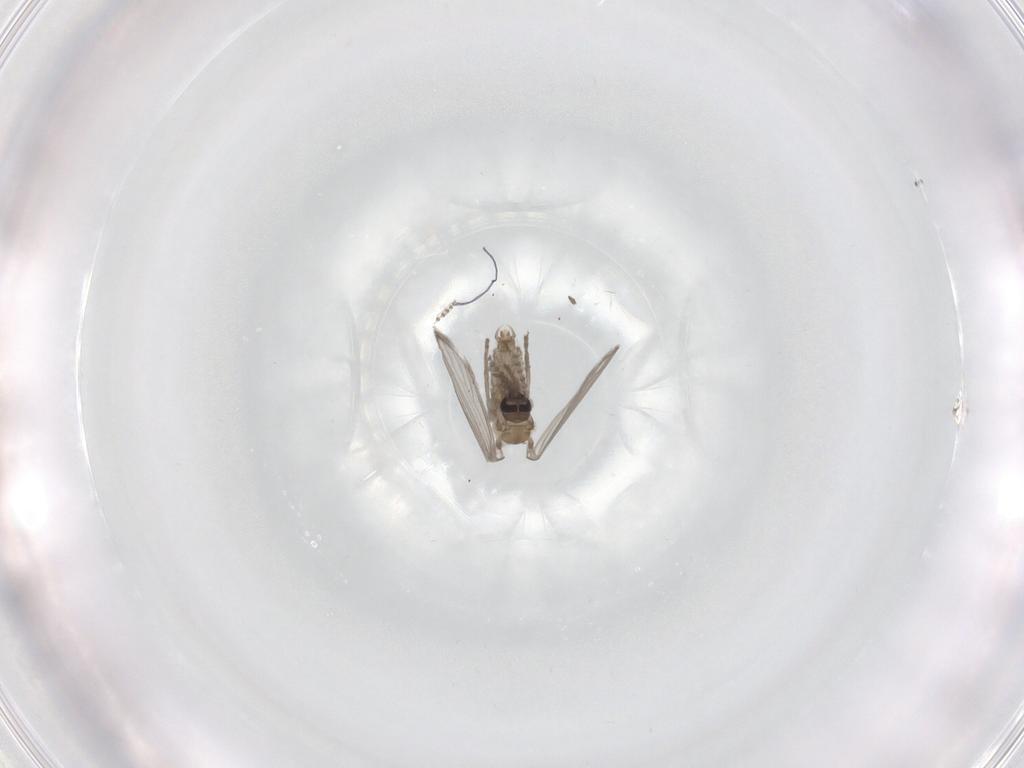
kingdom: Animalia
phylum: Arthropoda
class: Insecta
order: Diptera
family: Psychodidae
